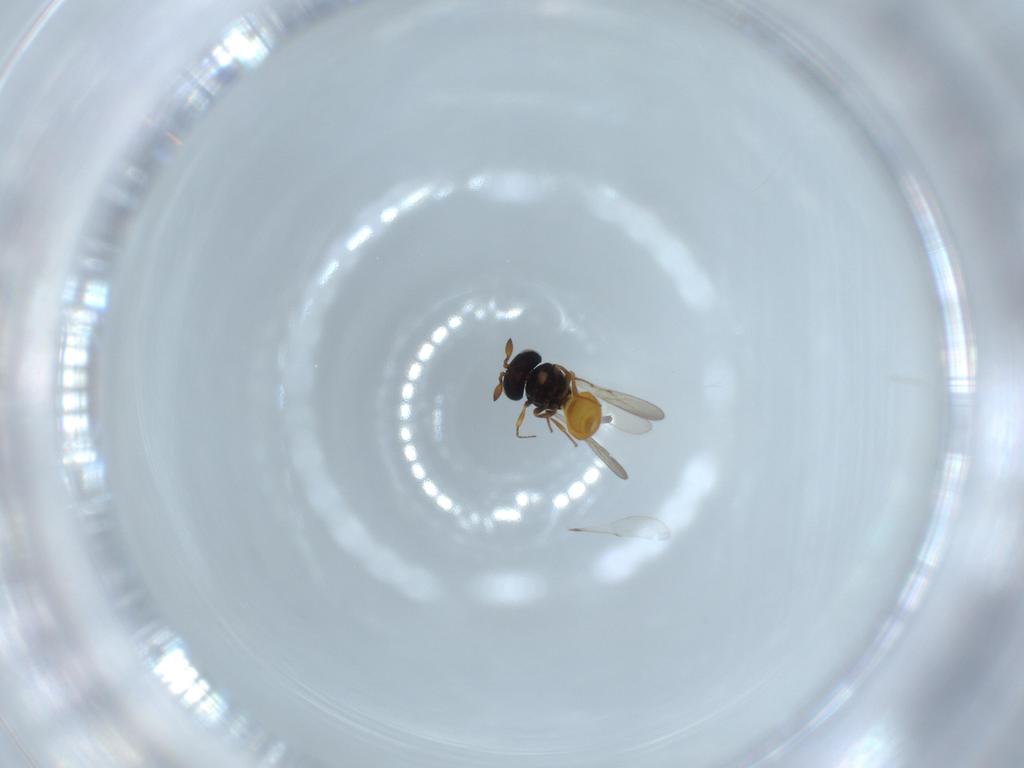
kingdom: Animalia
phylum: Arthropoda
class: Insecta
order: Hymenoptera
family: Scelionidae
